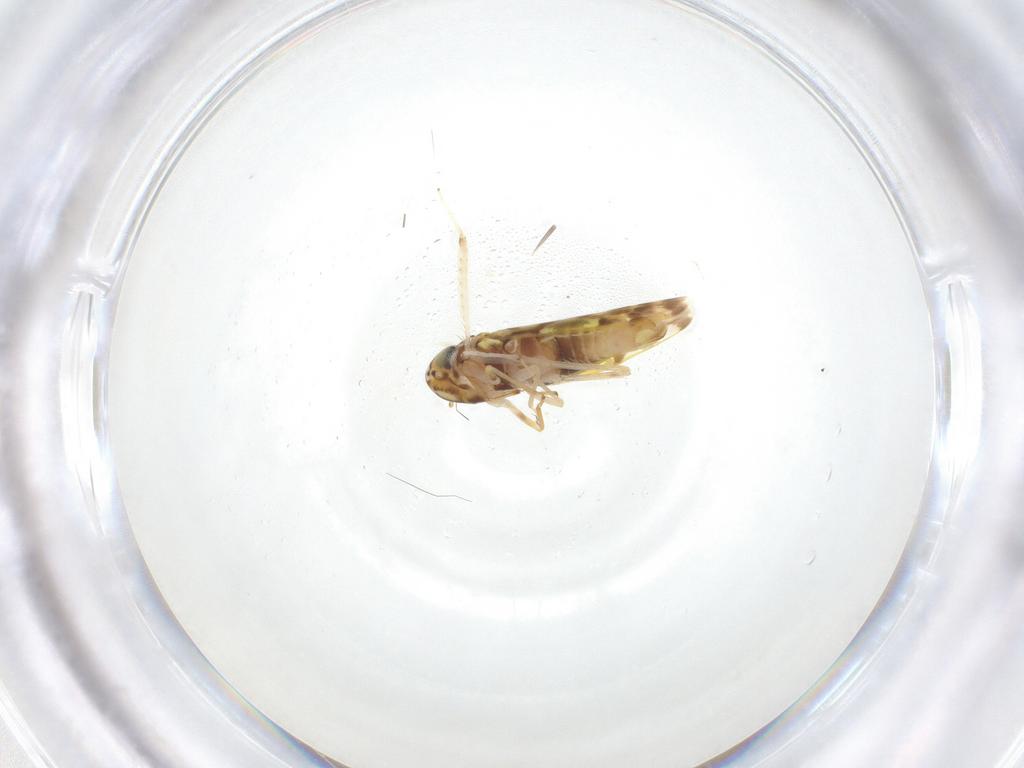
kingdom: Animalia
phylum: Arthropoda
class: Insecta
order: Hemiptera
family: Cicadellidae
